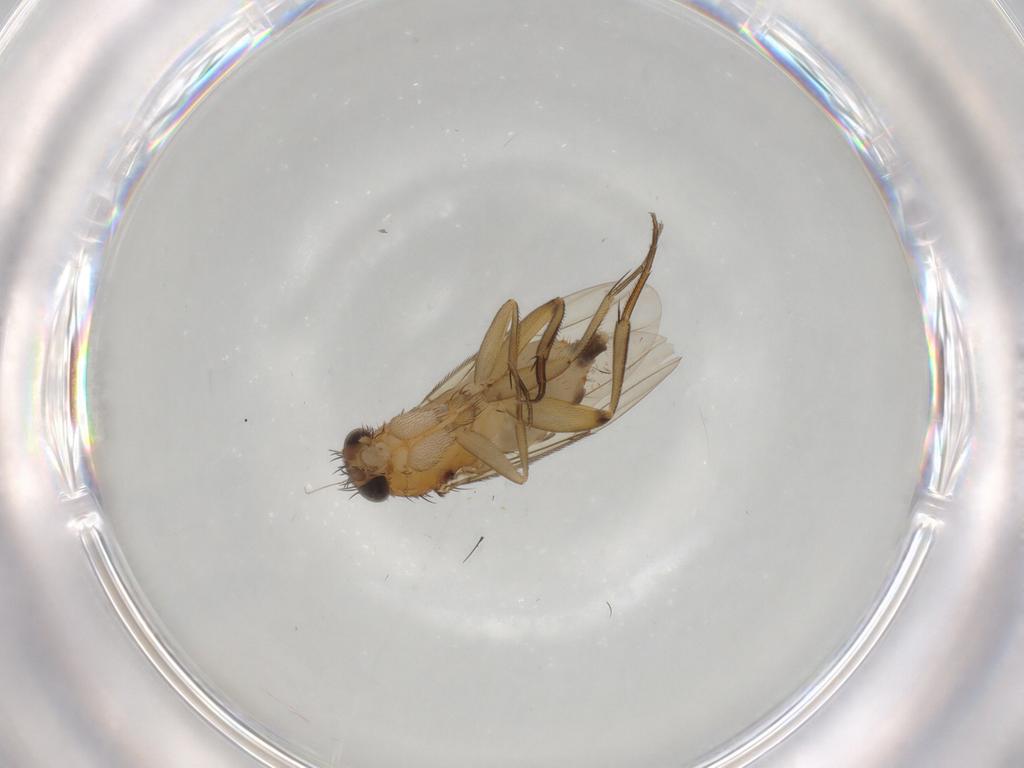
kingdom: Animalia
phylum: Arthropoda
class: Insecta
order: Diptera
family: Phoridae
